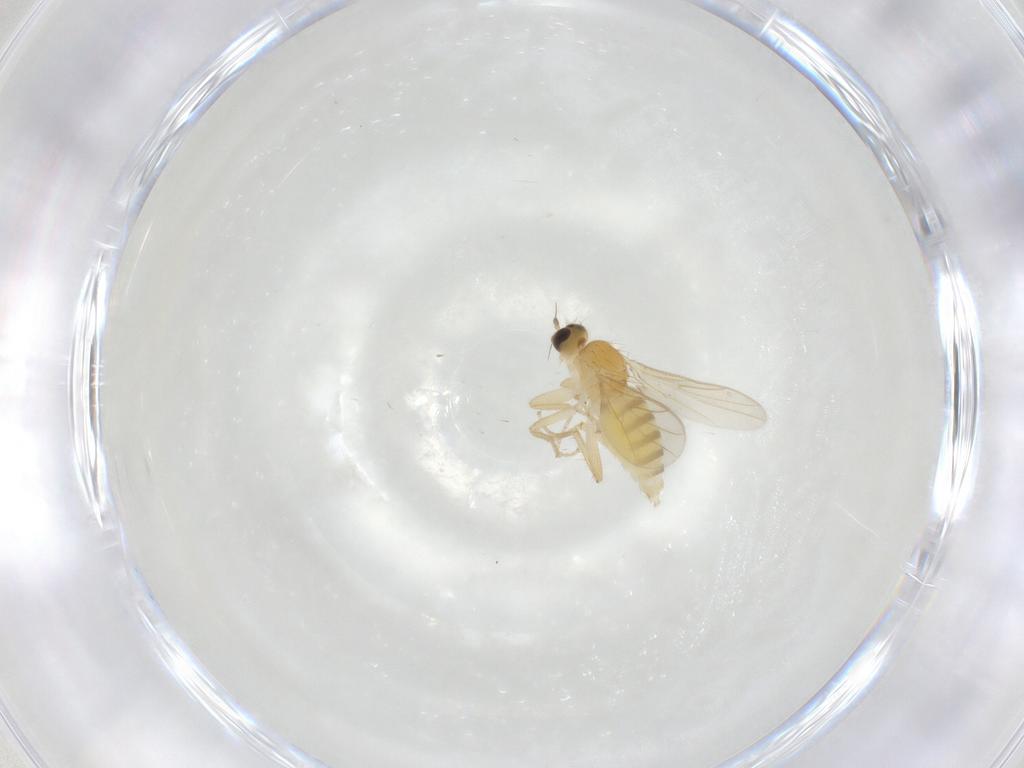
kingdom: Animalia
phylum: Arthropoda
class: Insecta
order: Diptera
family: Hybotidae
